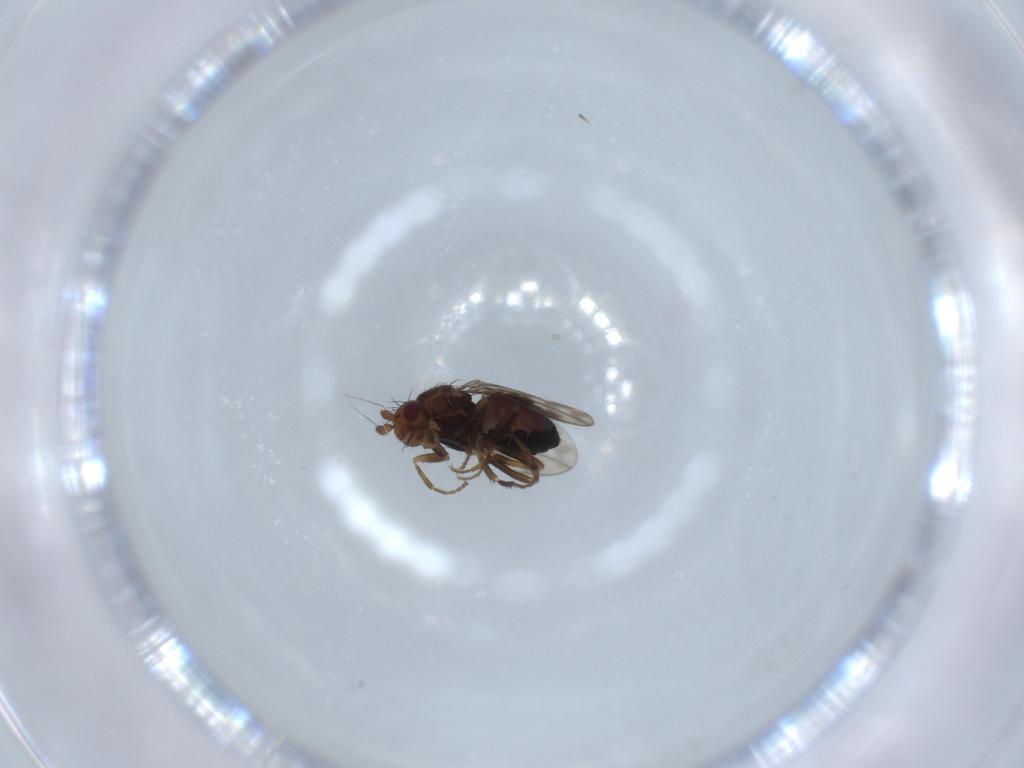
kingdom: Animalia
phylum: Arthropoda
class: Insecta
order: Diptera
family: Sphaeroceridae
